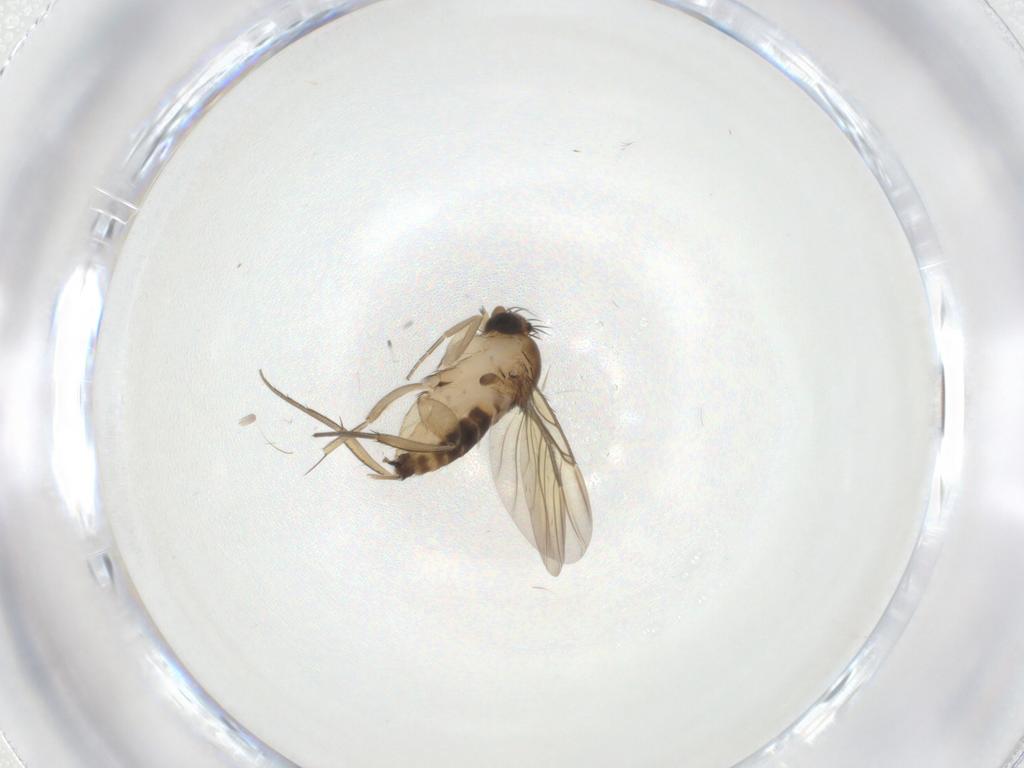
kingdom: Animalia
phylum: Arthropoda
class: Insecta
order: Diptera
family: Phoridae
